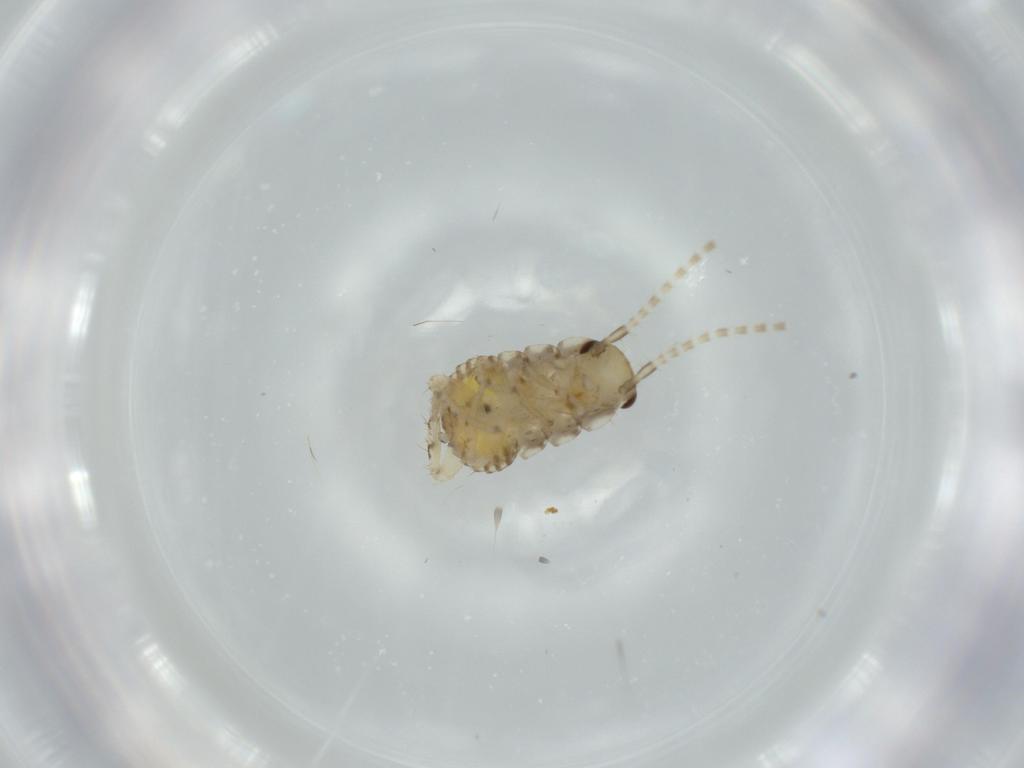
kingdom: Animalia
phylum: Arthropoda
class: Insecta
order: Blattodea
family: Ectobiidae
